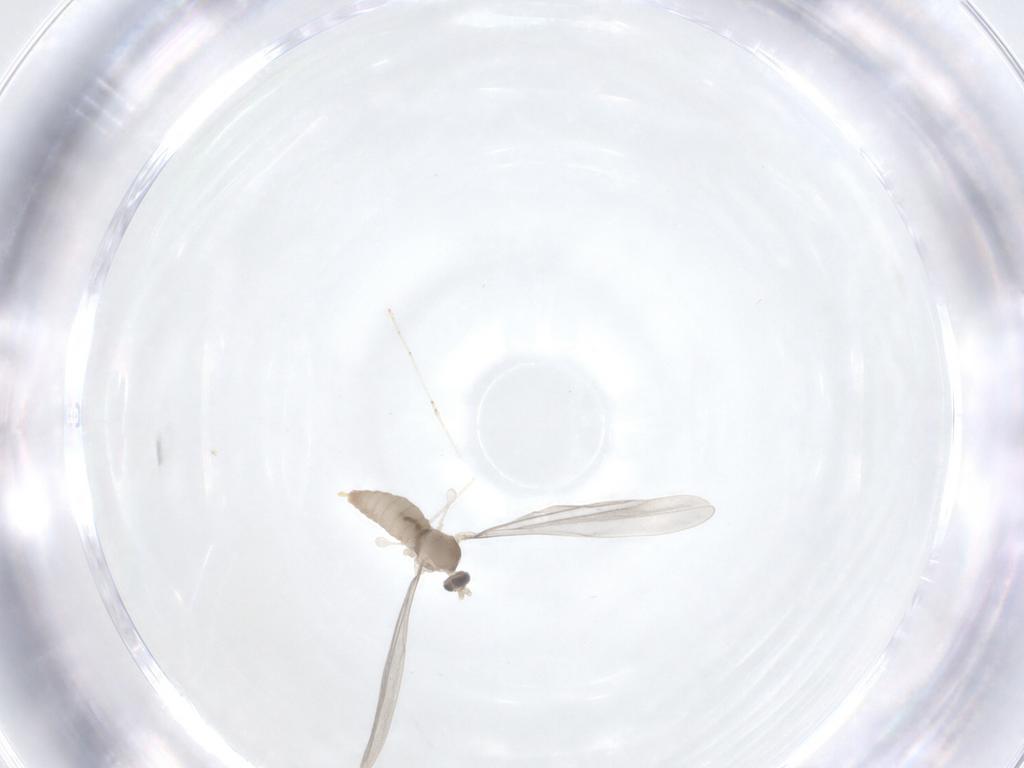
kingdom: Animalia
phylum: Arthropoda
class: Insecta
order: Diptera
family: Cecidomyiidae
